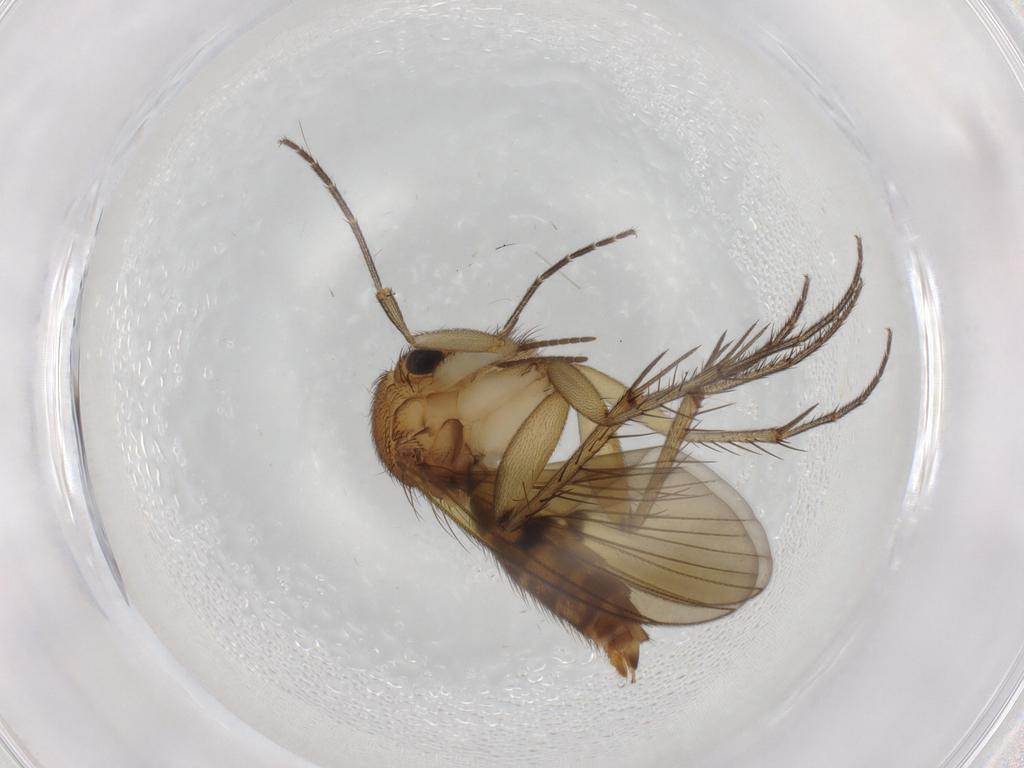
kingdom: Animalia
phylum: Arthropoda
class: Insecta
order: Diptera
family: Mycetophilidae
